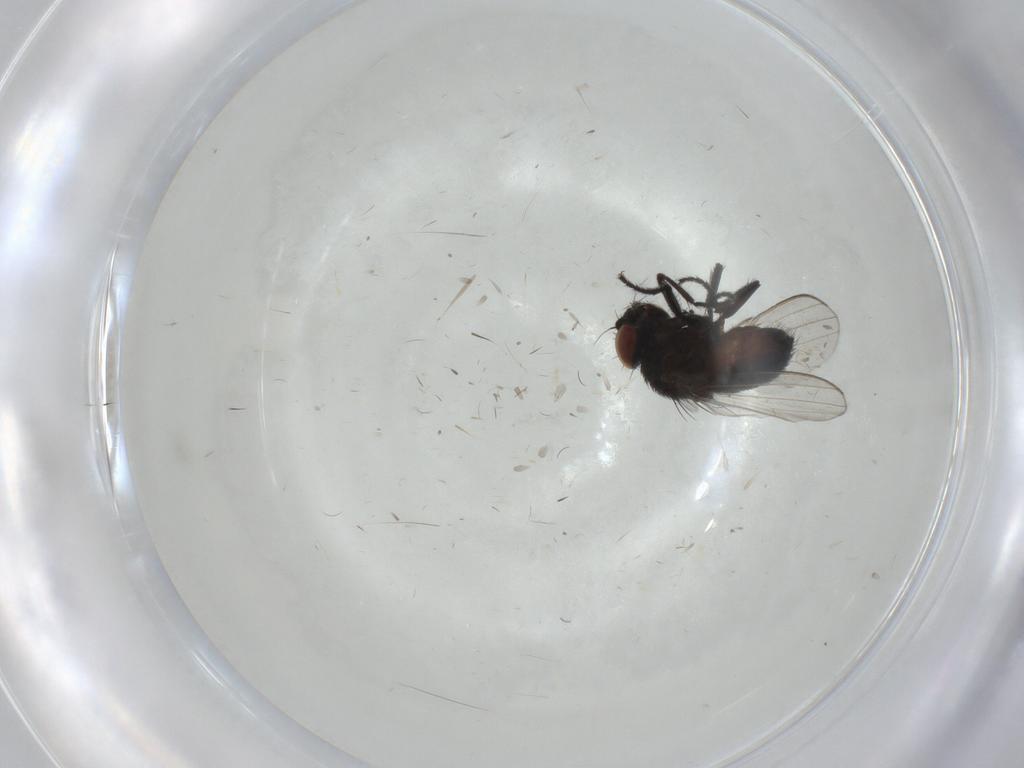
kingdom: Animalia
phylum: Arthropoda
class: Insecta
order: Diptera
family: Milichiidae
